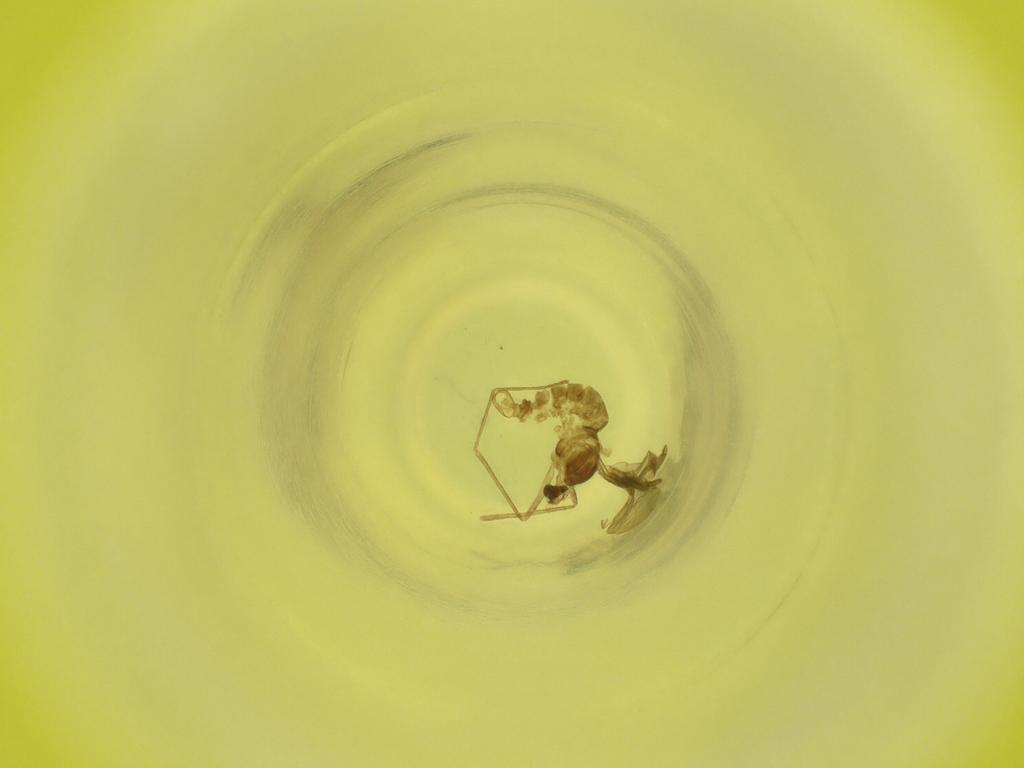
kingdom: Animalia
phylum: Arthropoda
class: Insecta
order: Diptera
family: Cecidomyiidae
